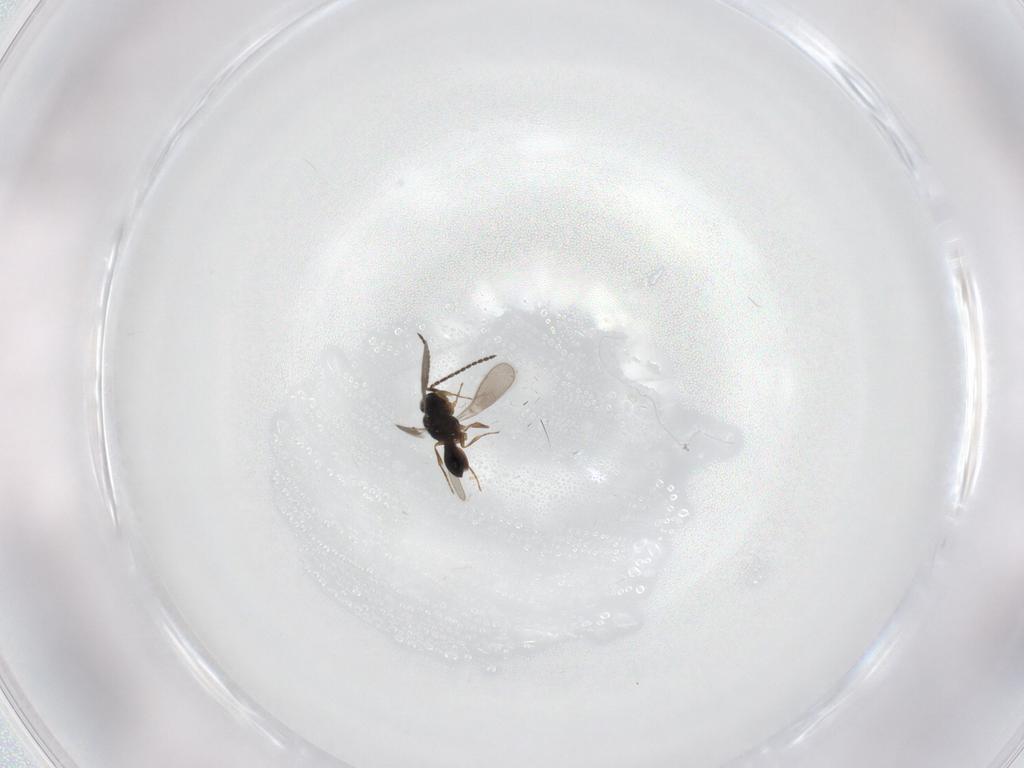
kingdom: Animalia
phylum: Arthropoda
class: Insecta
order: Hymenoptera
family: Scelionidae
